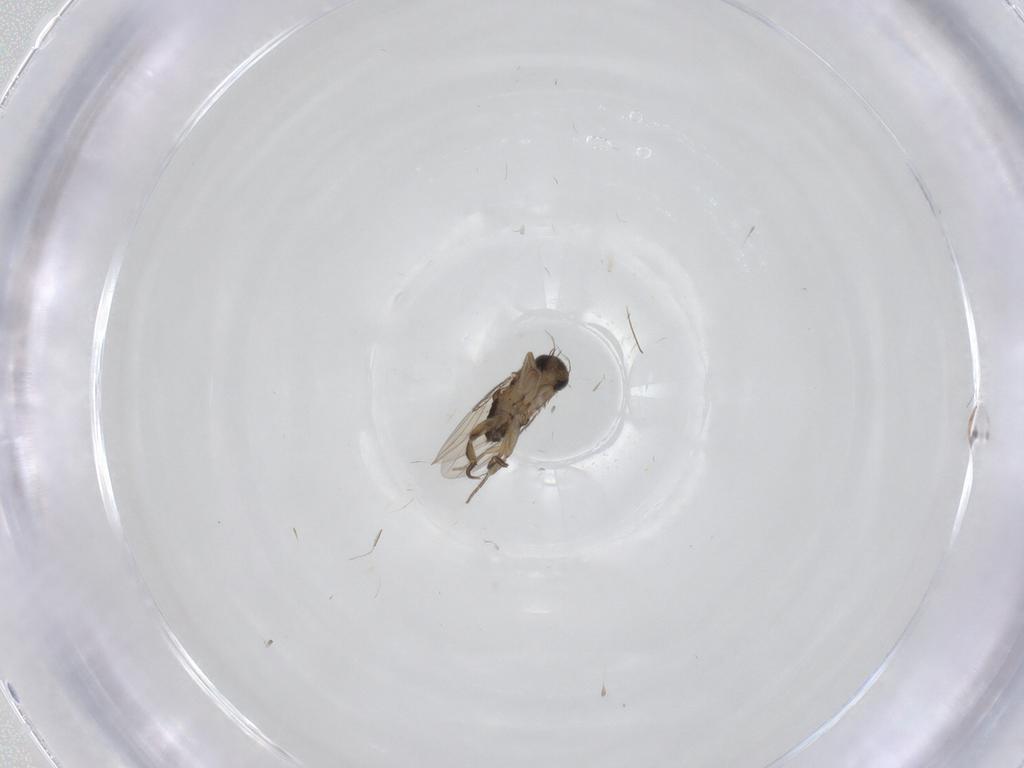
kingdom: Animalia
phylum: Arthropoda
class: Insecta
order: Diptera
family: Phoridae
